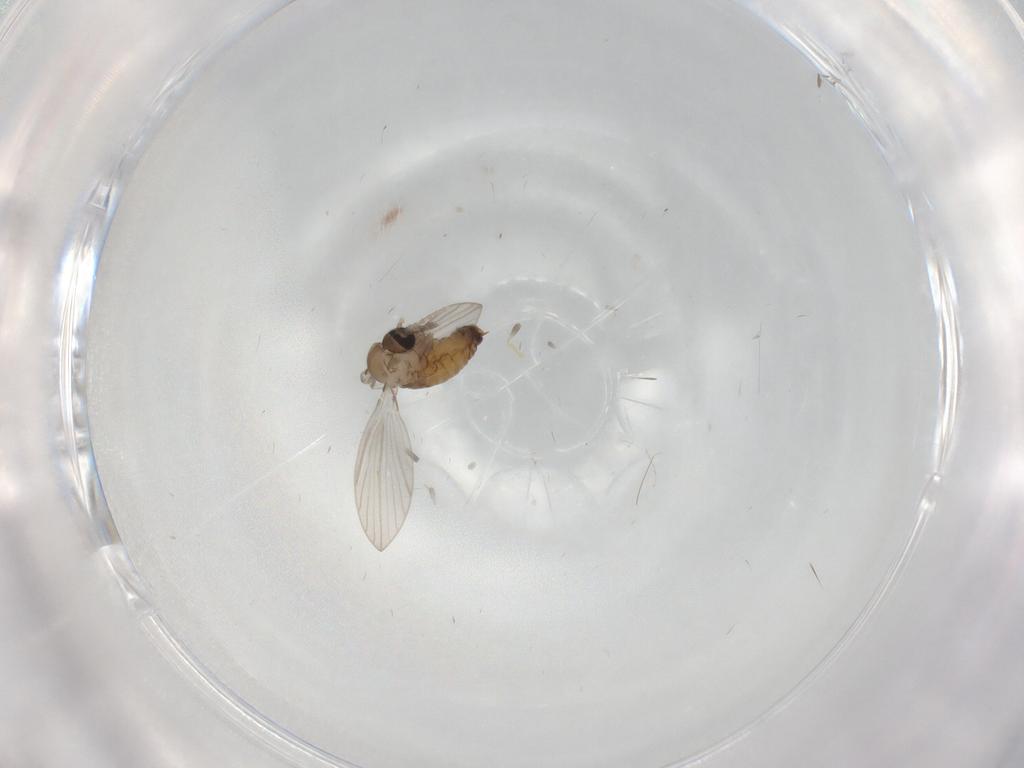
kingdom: Animalia
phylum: Arthropoda
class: Insecta
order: Diptera
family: Psychodidae
